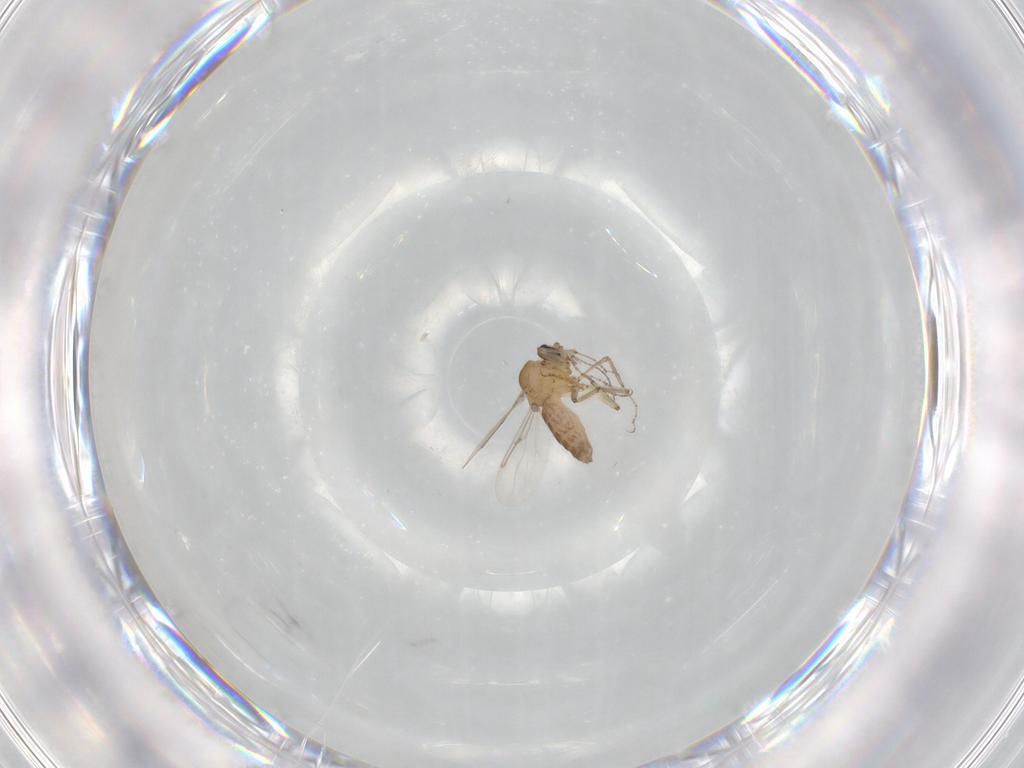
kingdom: Animalia
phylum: Arthropoda
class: Insecta
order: Diptera
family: Ceratopogonidae
